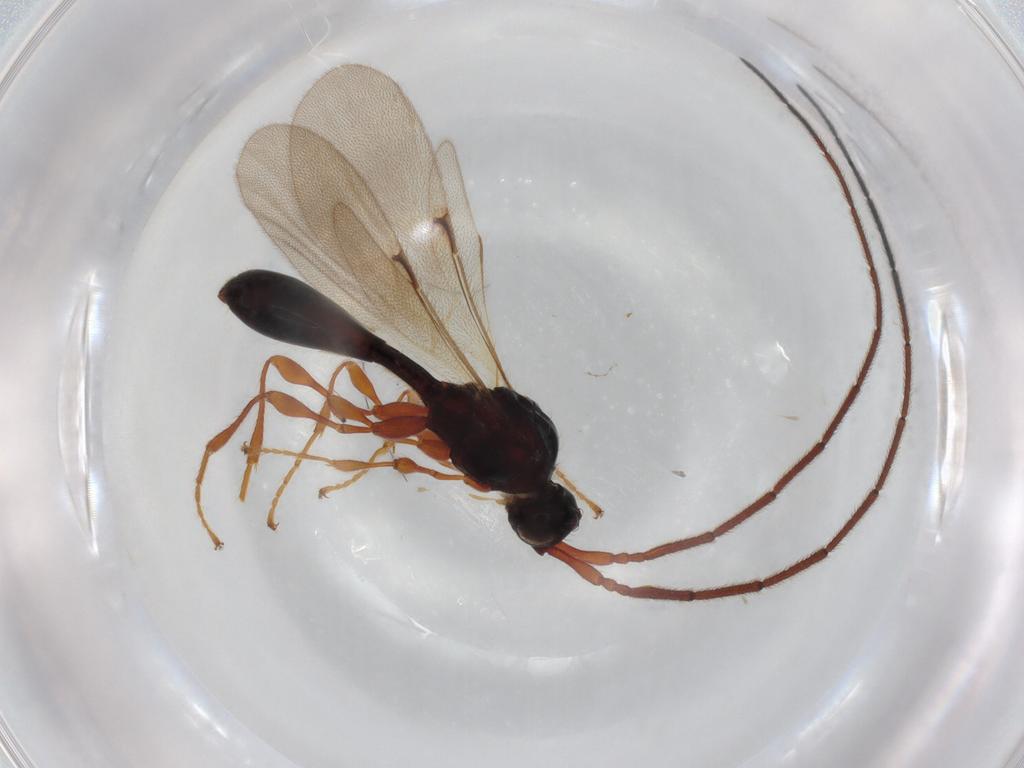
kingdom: Animalia
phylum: Arthropoda
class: Insecta
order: Hymenoptera
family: Braconidae
